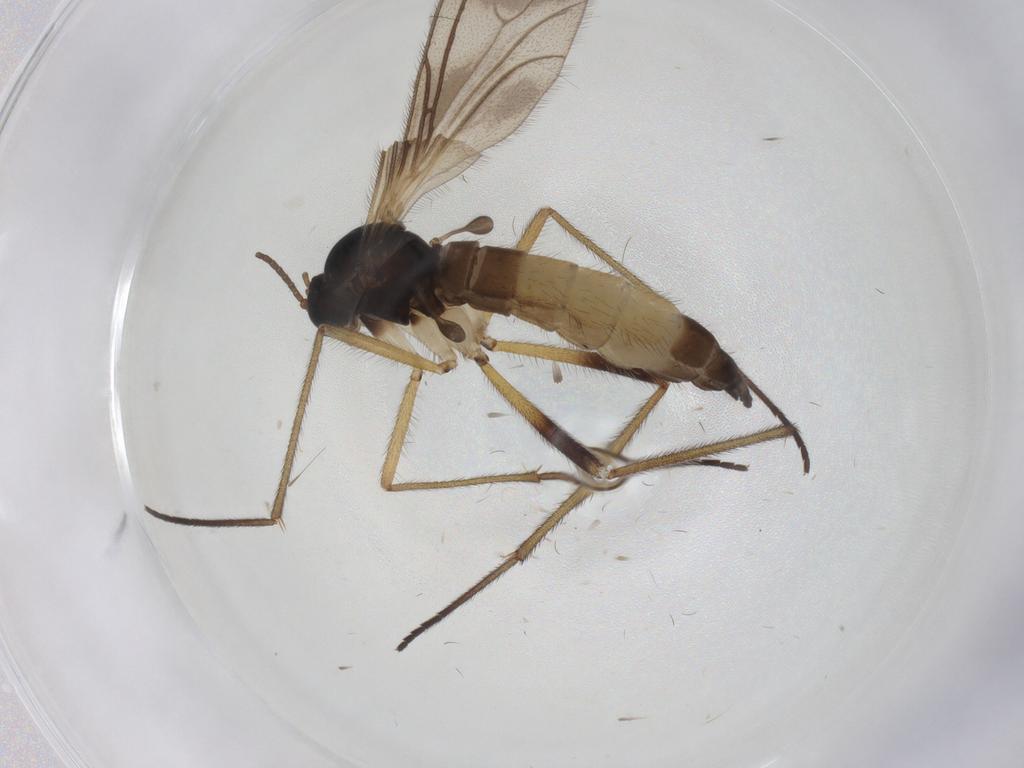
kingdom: Animalia
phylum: Arthropoda
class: Insecta
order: Diptera
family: Sciaridae
